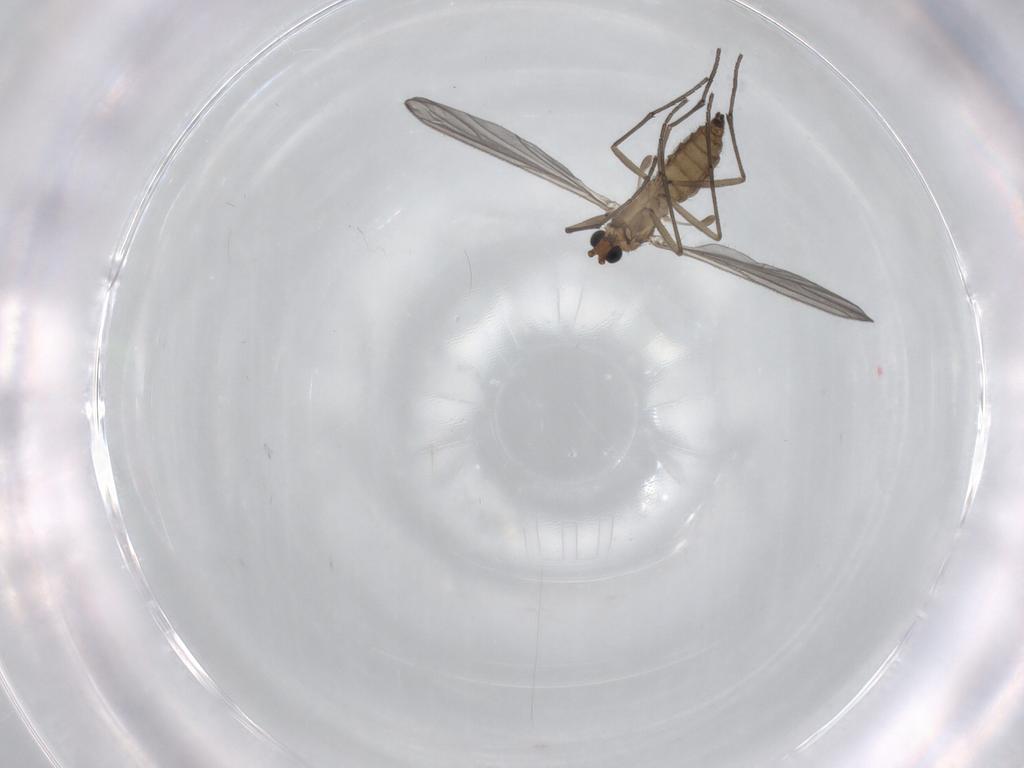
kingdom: Animalia
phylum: Arthropoda
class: Insecta
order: Diptera
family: Sciaridae
